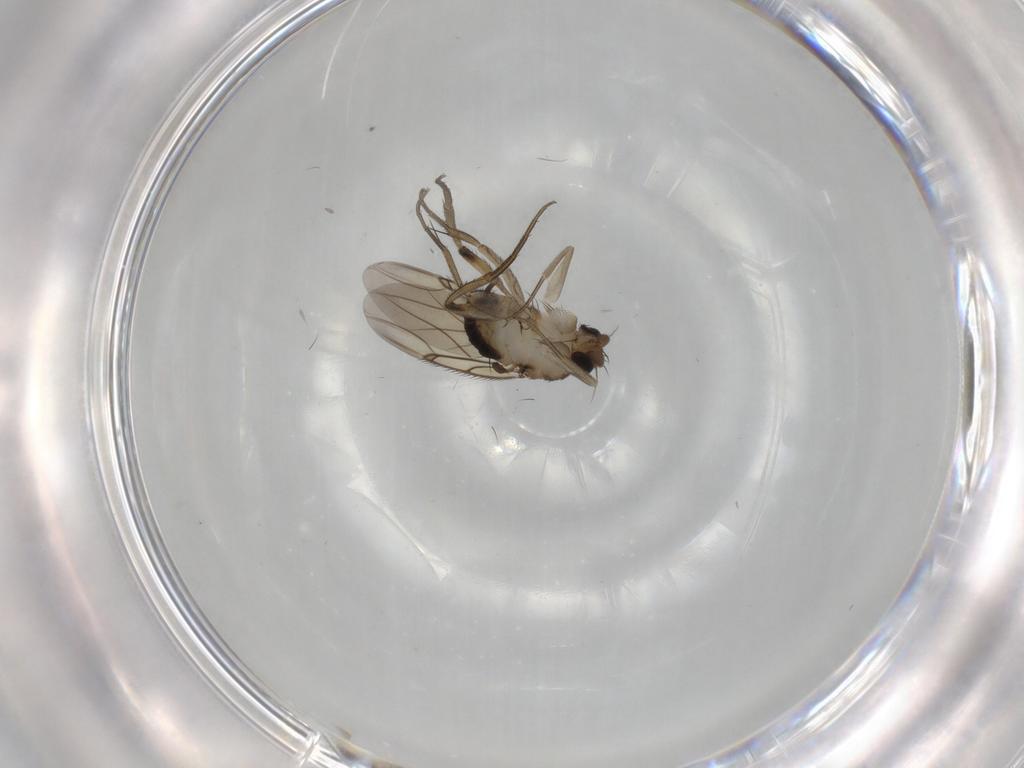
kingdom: Animalia
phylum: Arthropoda
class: Insecta
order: Diptera
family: Phoridae
